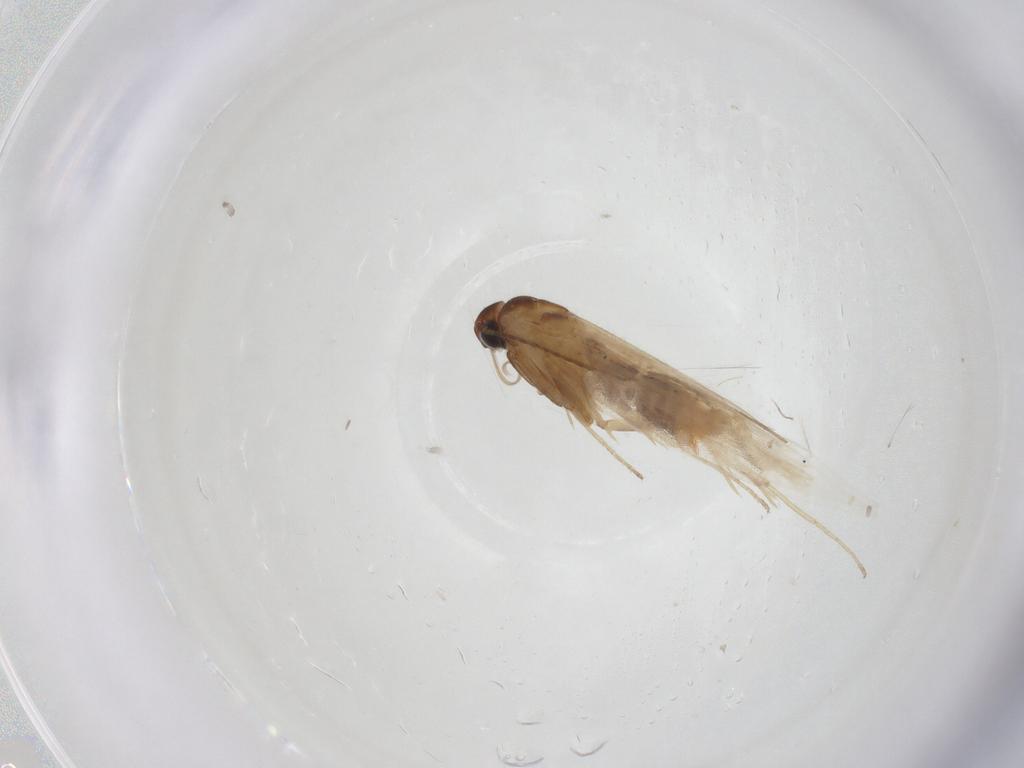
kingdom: Animalia
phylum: Arthropoda
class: Insecta
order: Lepidoptera
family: Gelechiidae
